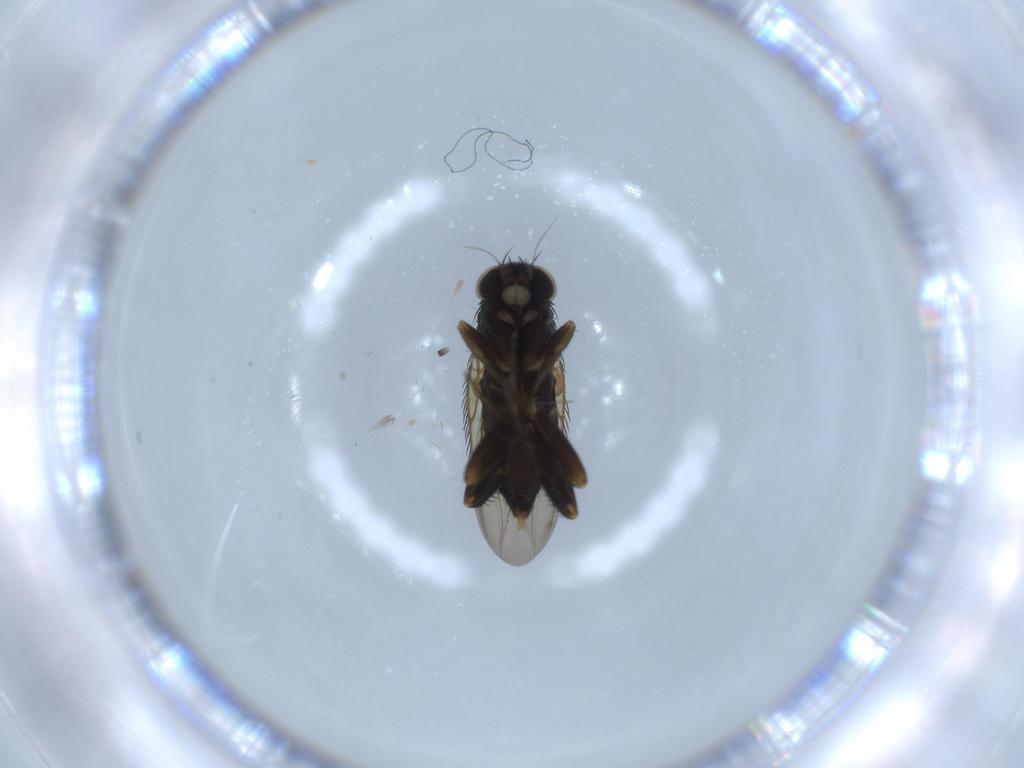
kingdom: Animalia
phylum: Arthropoda
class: Insecta
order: Diptera
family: Phoridae
